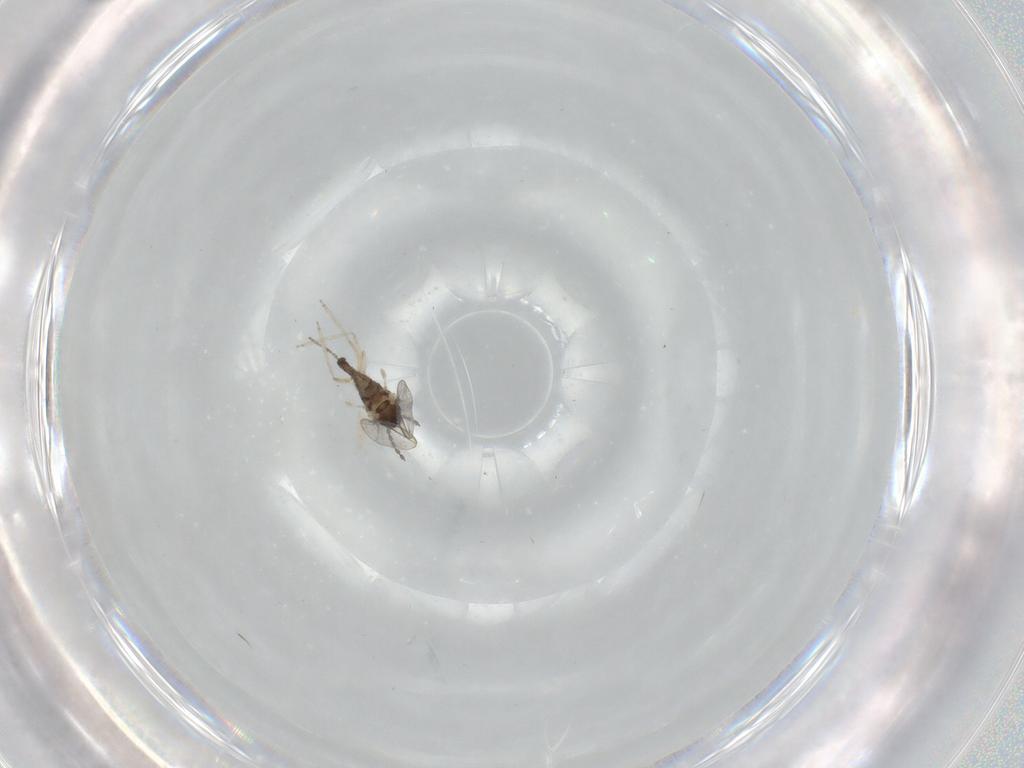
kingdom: Animalia
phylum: Arthropoda
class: Insecta
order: Diptera
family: Cecidomyiidae
